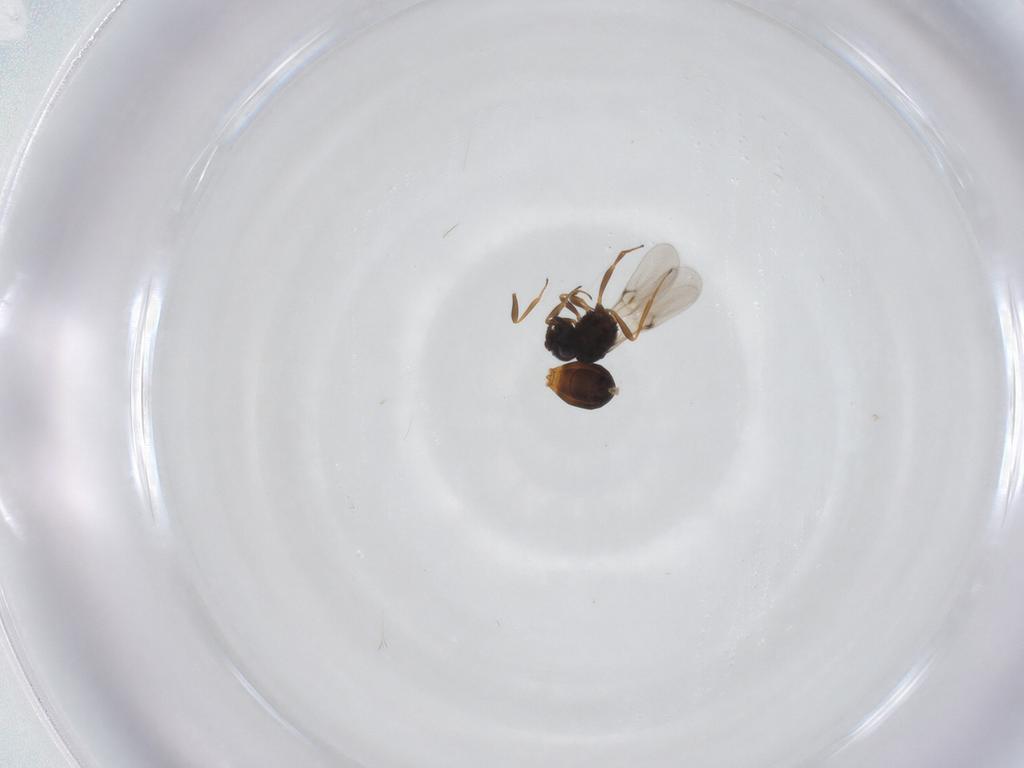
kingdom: Animalia
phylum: Arthropoda
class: Insecta
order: Hymenoptera
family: Scelionidae
